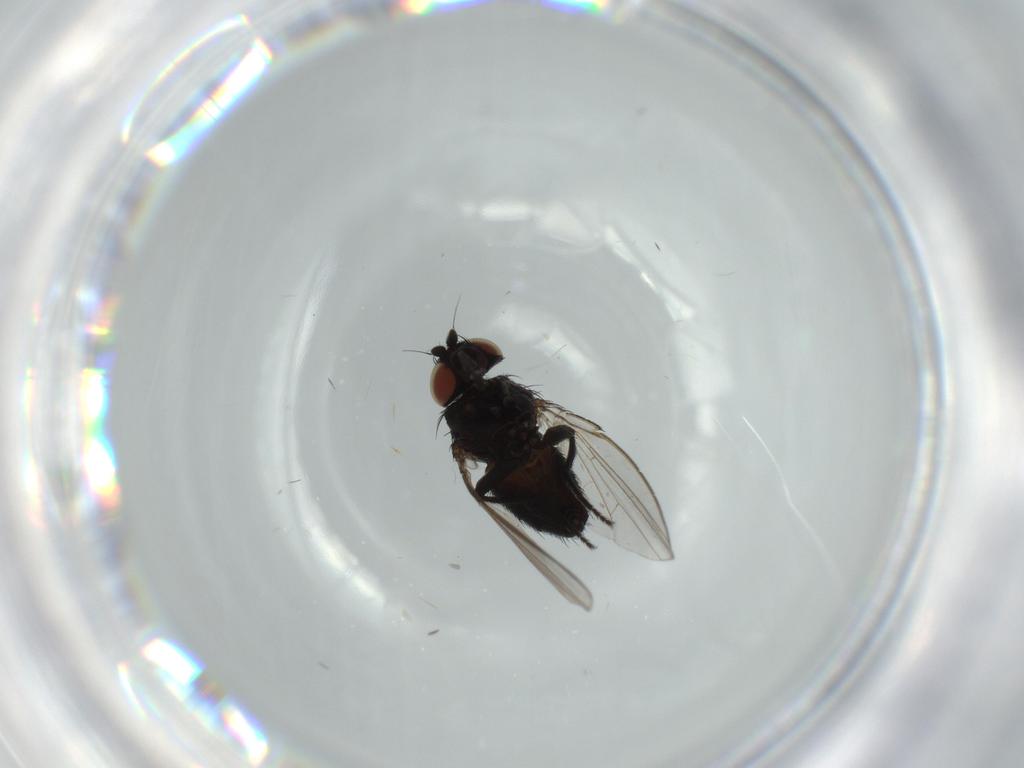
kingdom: Animalia
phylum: Arthropoda
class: Insecta
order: Diptera
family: Milichiidae
